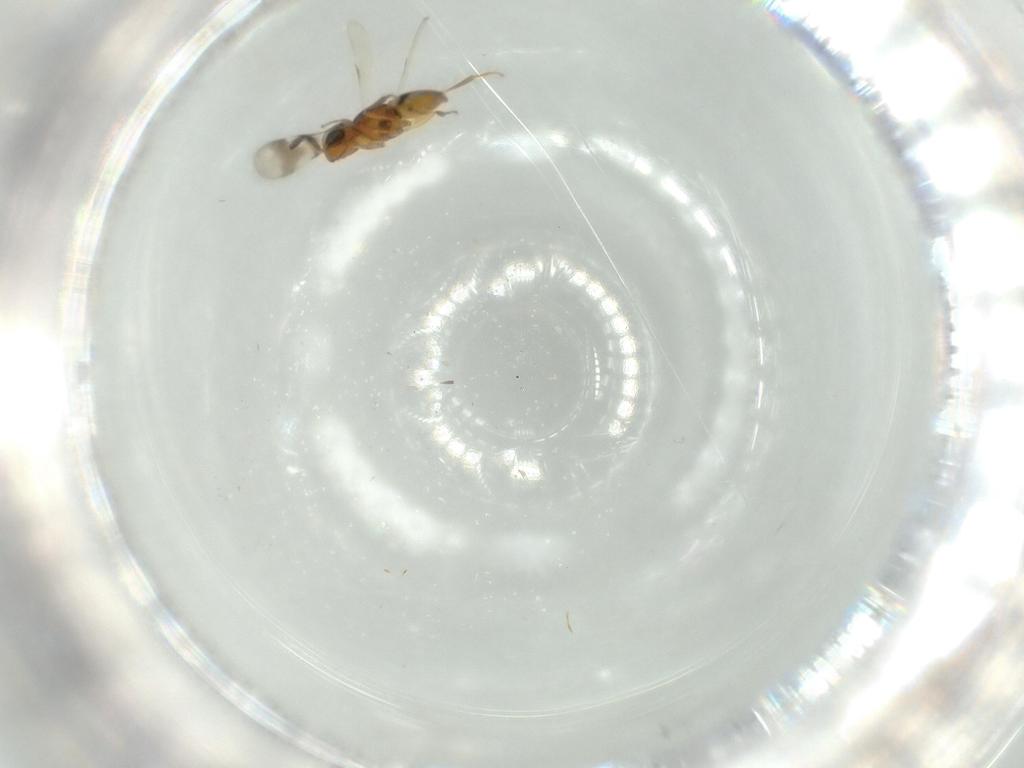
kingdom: Animalia
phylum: Arthropoda
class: Insecta
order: Hymenoptera
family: Scelionidae
